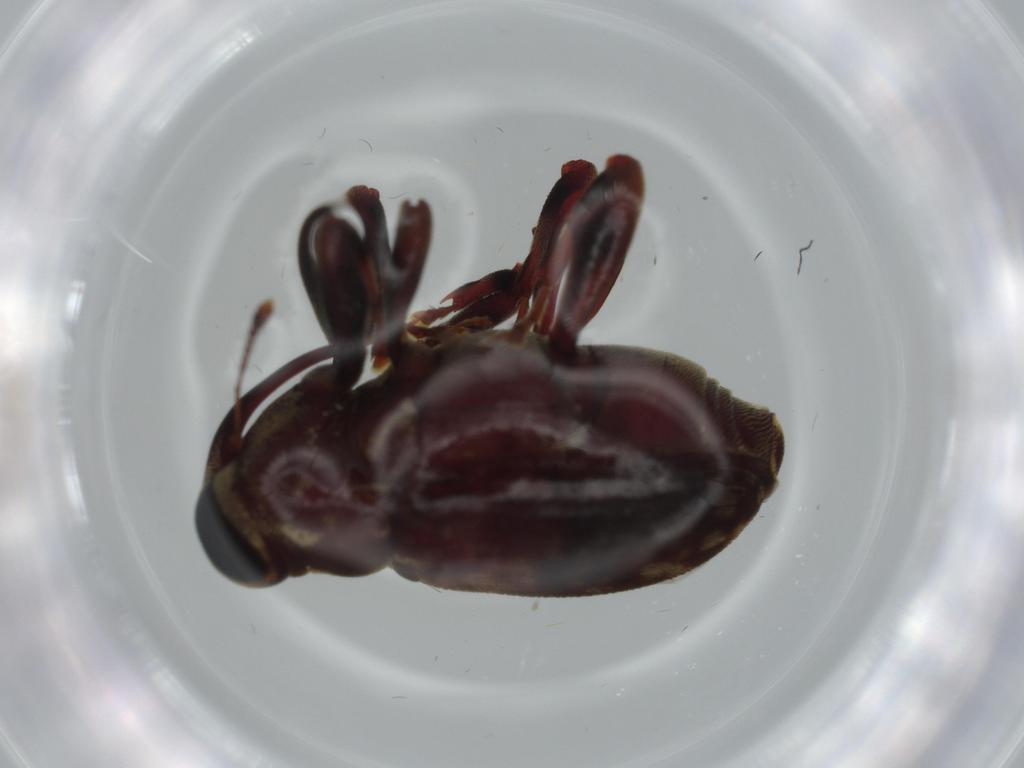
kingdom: Animalia
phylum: Arthropoda
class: Insecta
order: Coleoptera
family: Curculionidae
